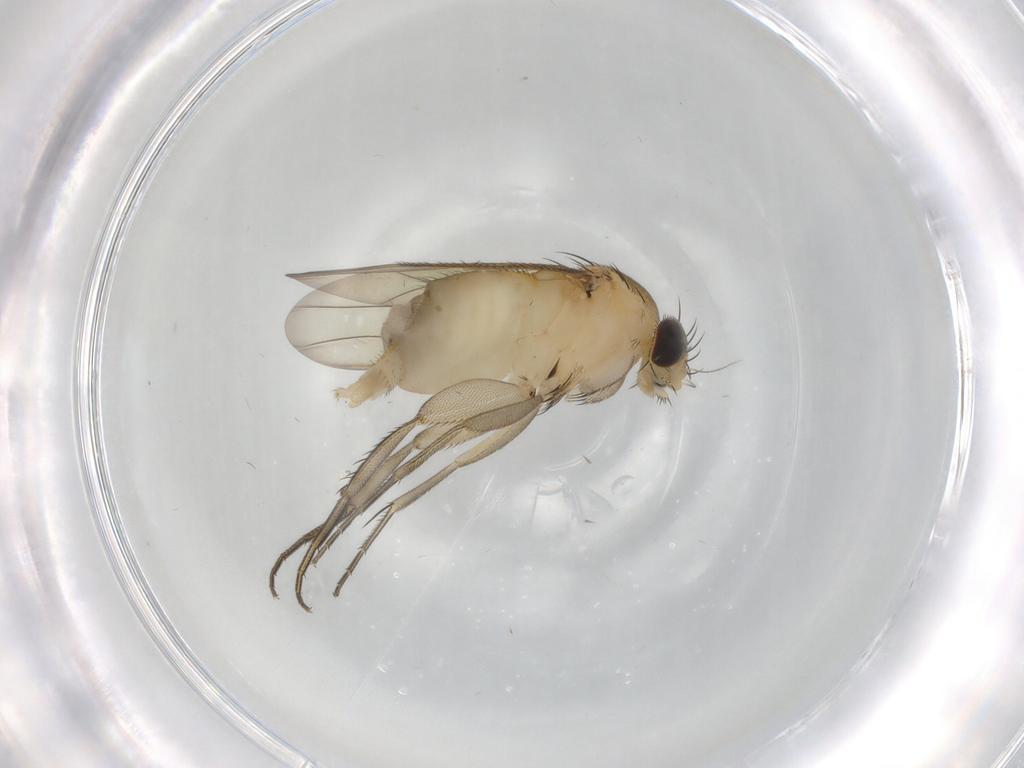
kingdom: Animalia
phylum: Arthropoda
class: Insecta
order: Diptera
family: Phoridae
